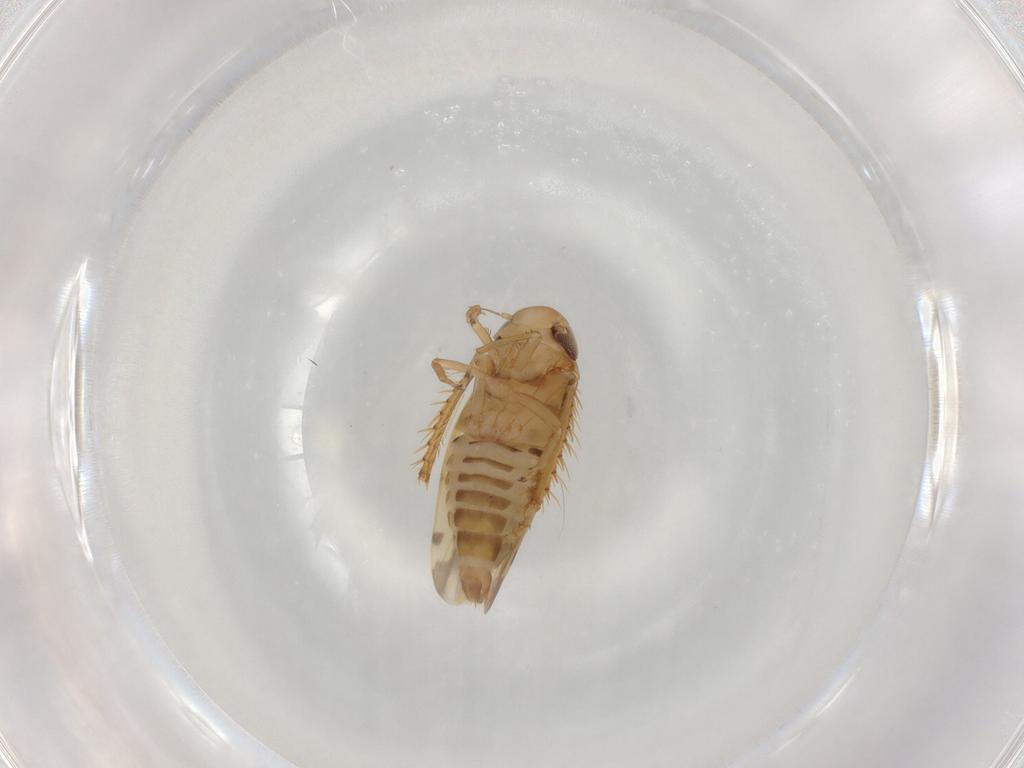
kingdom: Animalia
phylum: Arthropoda
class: Insecta
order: Hemiptera
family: Cicadellidae
